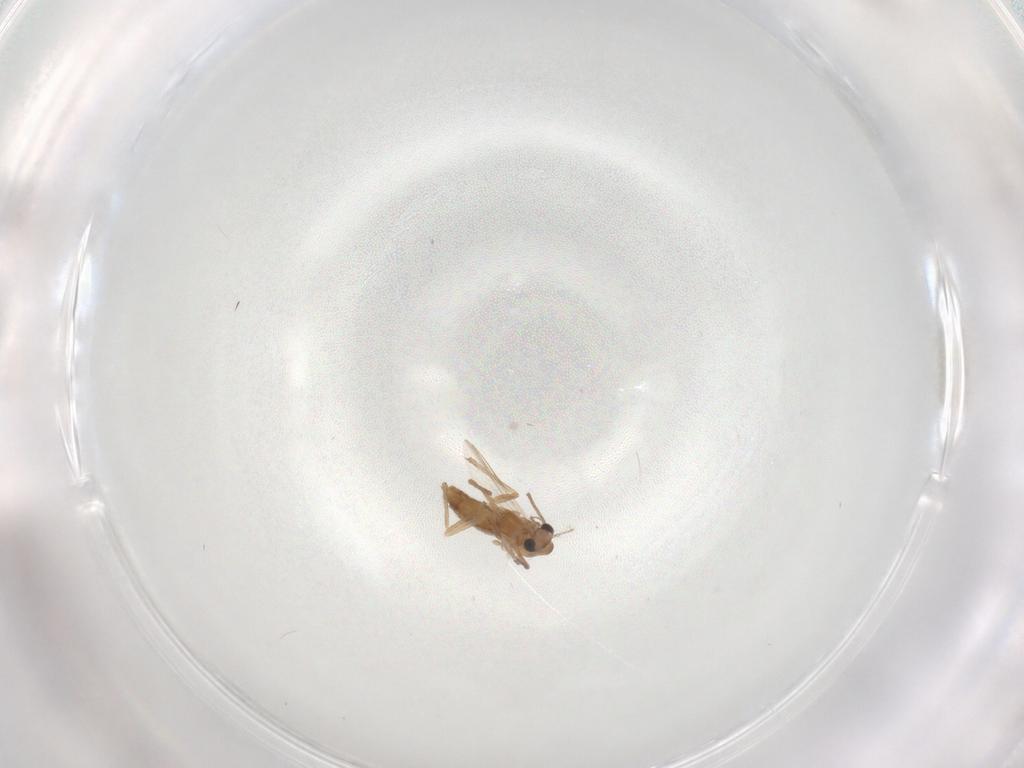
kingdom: Animalia
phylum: Arthropoda
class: Insecta
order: Diptera
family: Chironomidae
